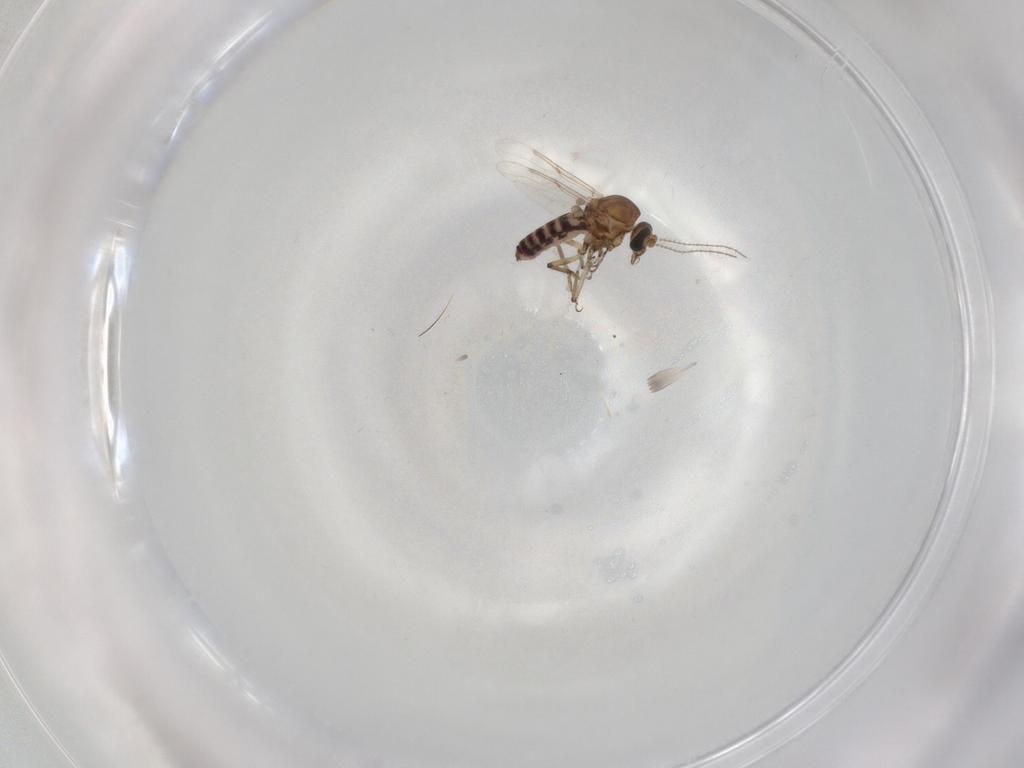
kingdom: Animalia
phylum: Arthropoda
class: Insecta
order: Diptera
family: Ceratopogonidae
